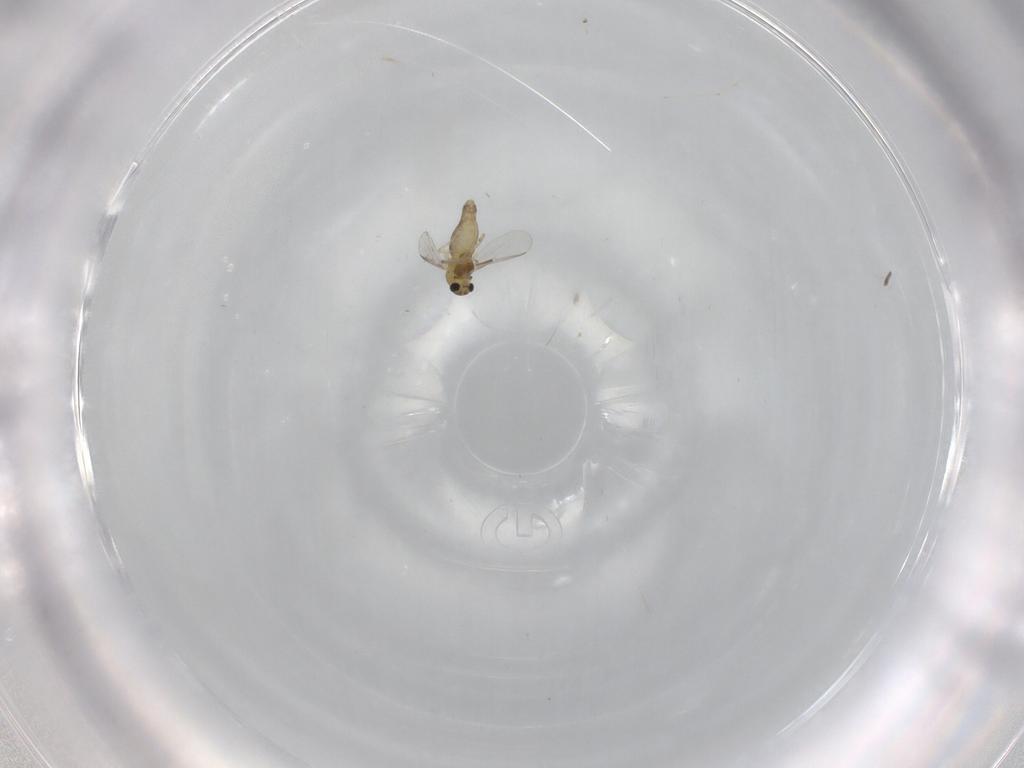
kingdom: Animalia
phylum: Arthropoda
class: Insecta
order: Diptera
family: Chironomidae
